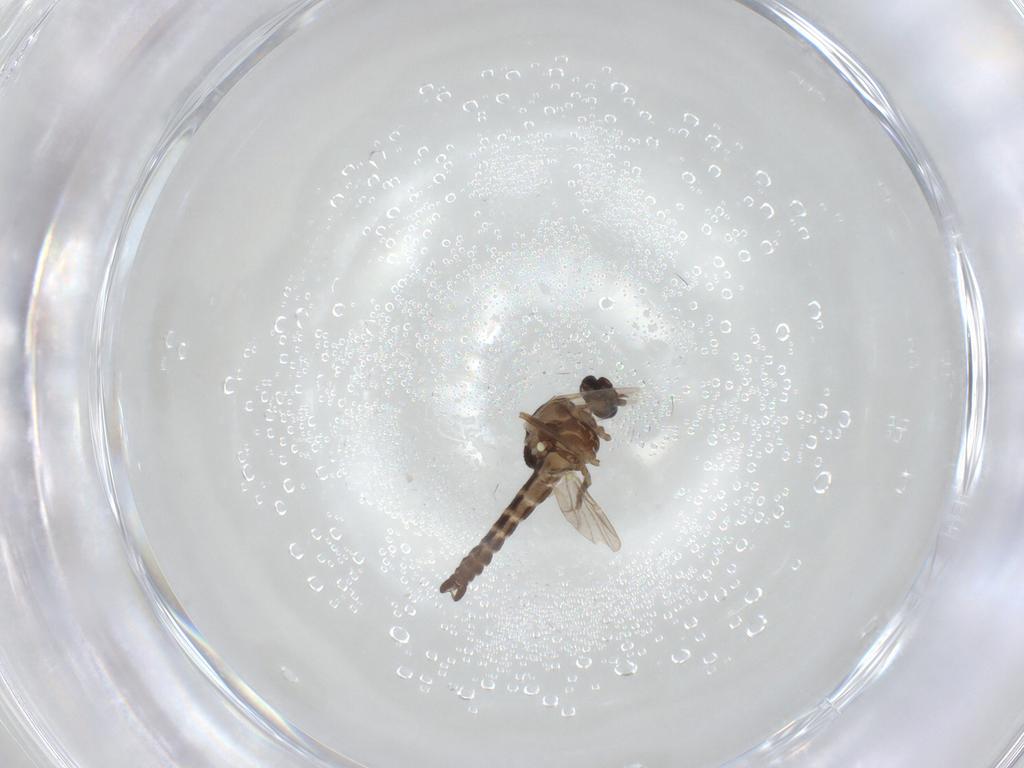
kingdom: Animalia
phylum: Arthropoda
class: Insecta
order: Diptera
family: Ceratopogonidae
